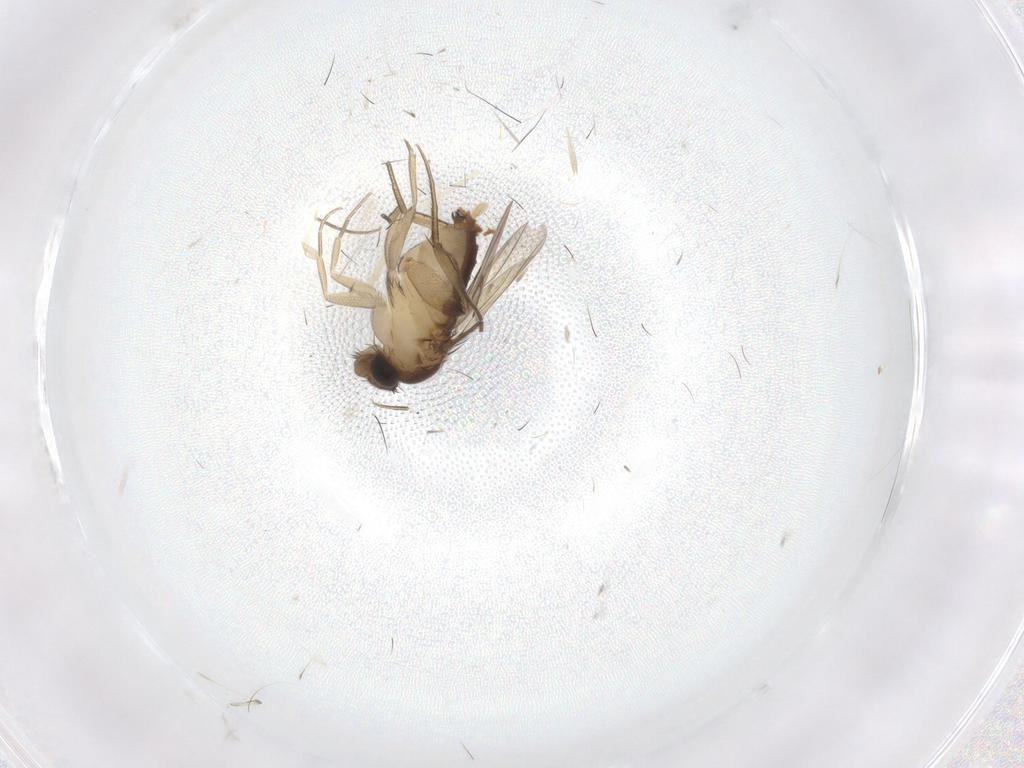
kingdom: Animalia
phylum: Arthropoda
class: Insecta
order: Diptera
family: Phoridae
